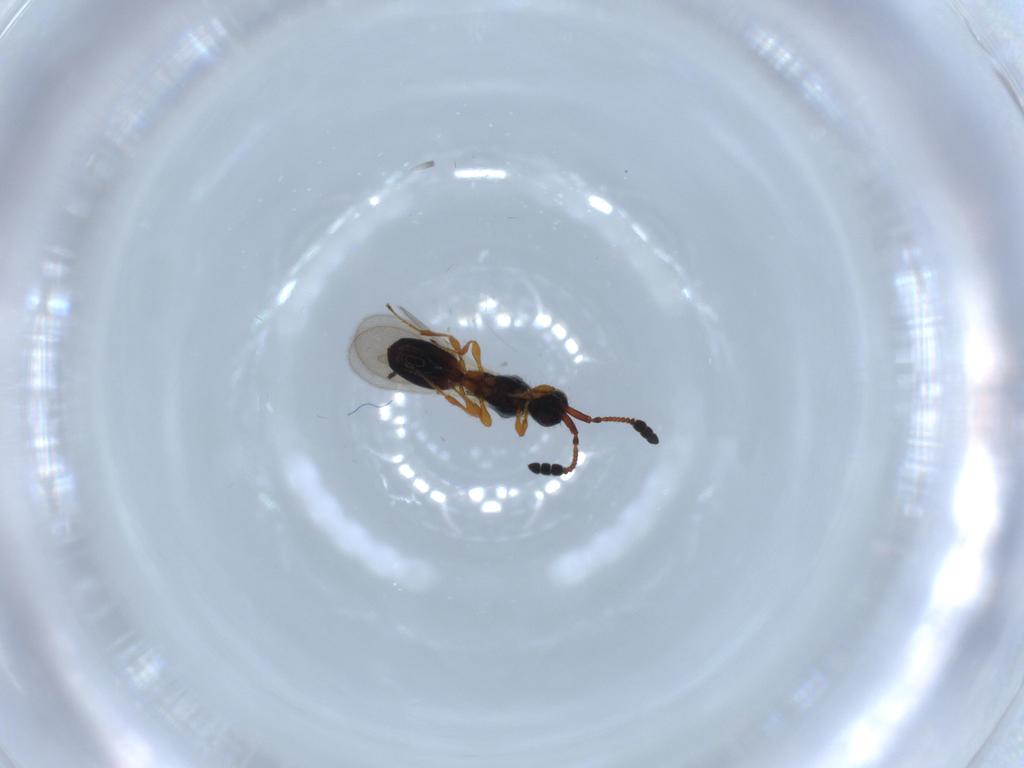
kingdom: Animalia
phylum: Arthropoda
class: Insecta
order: Hymenoptera
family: Diapriidae
